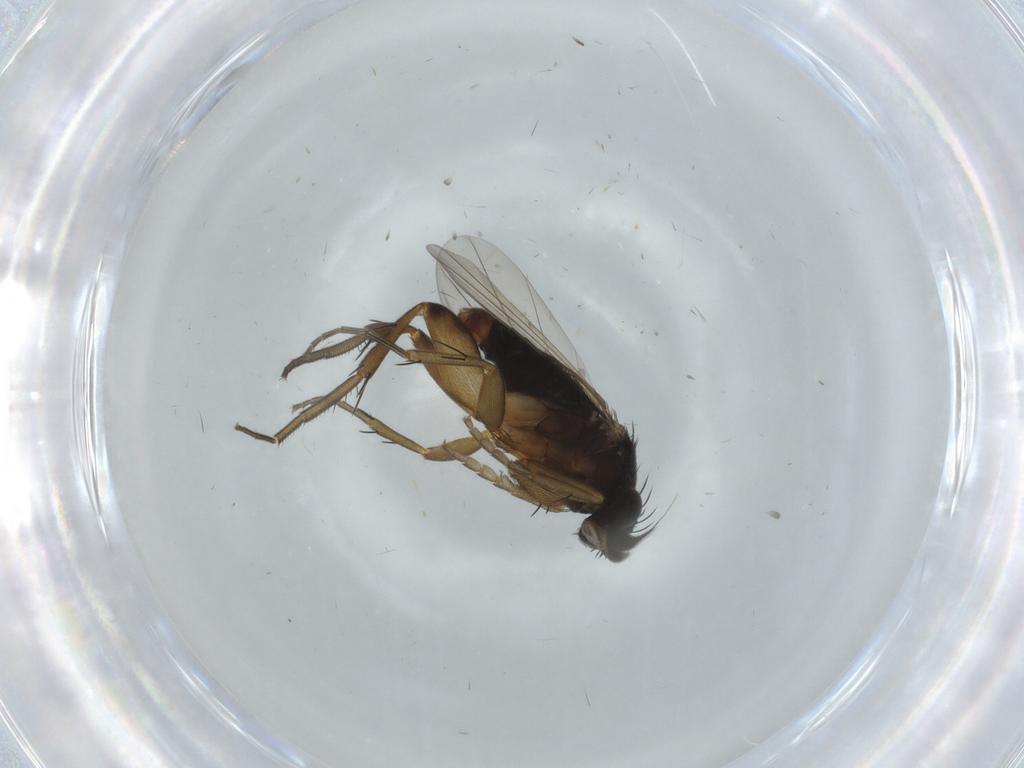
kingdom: Animalia
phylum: Arthropoda
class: Insecta
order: Diptera
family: Phoridae
